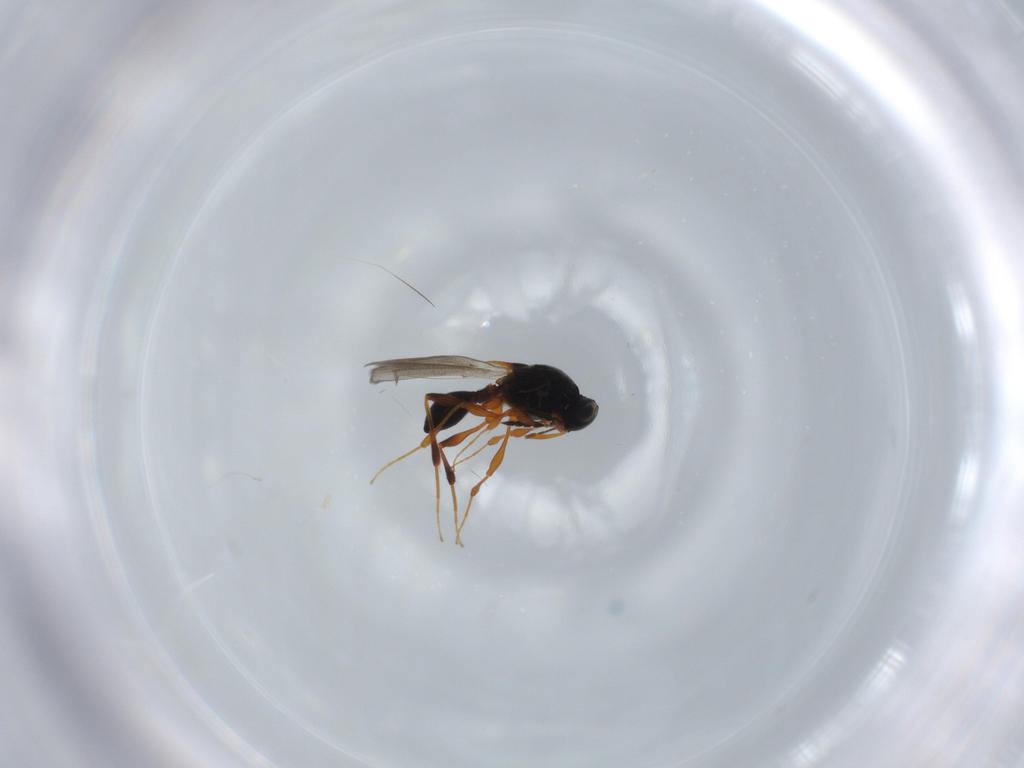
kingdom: Animalia
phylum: Arthropoda
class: Insecta
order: Hymenoptera
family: Platygastridae
